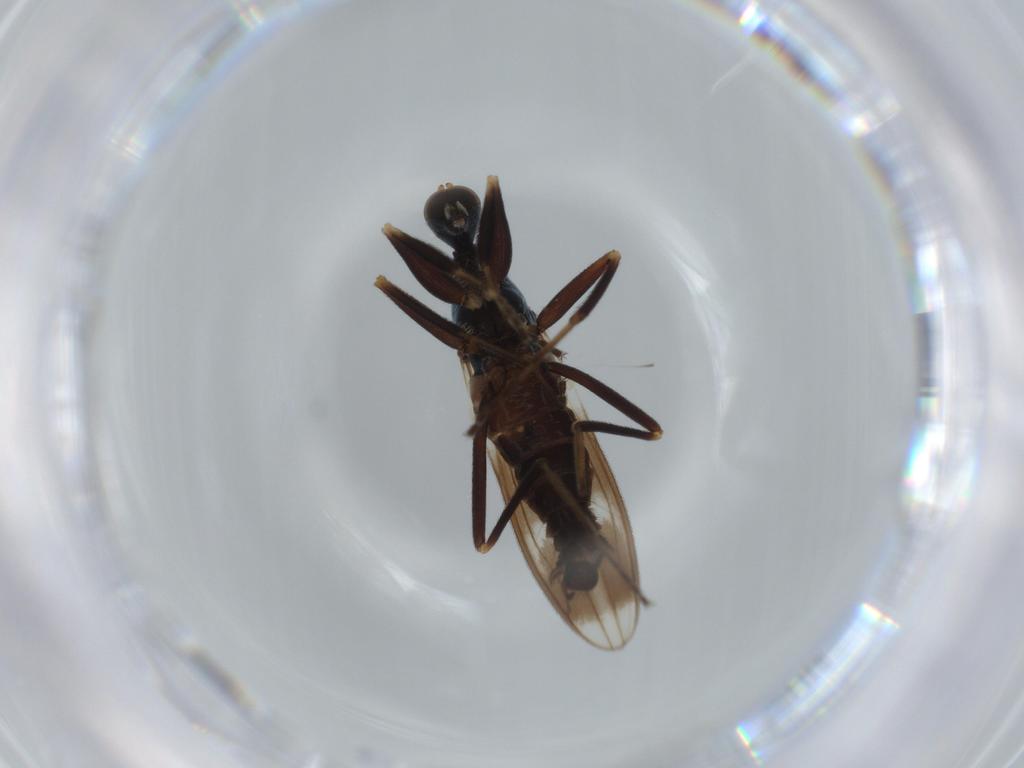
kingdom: Animalia
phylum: Arthropoda
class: Insecta
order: Diptera
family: Hybotidae
